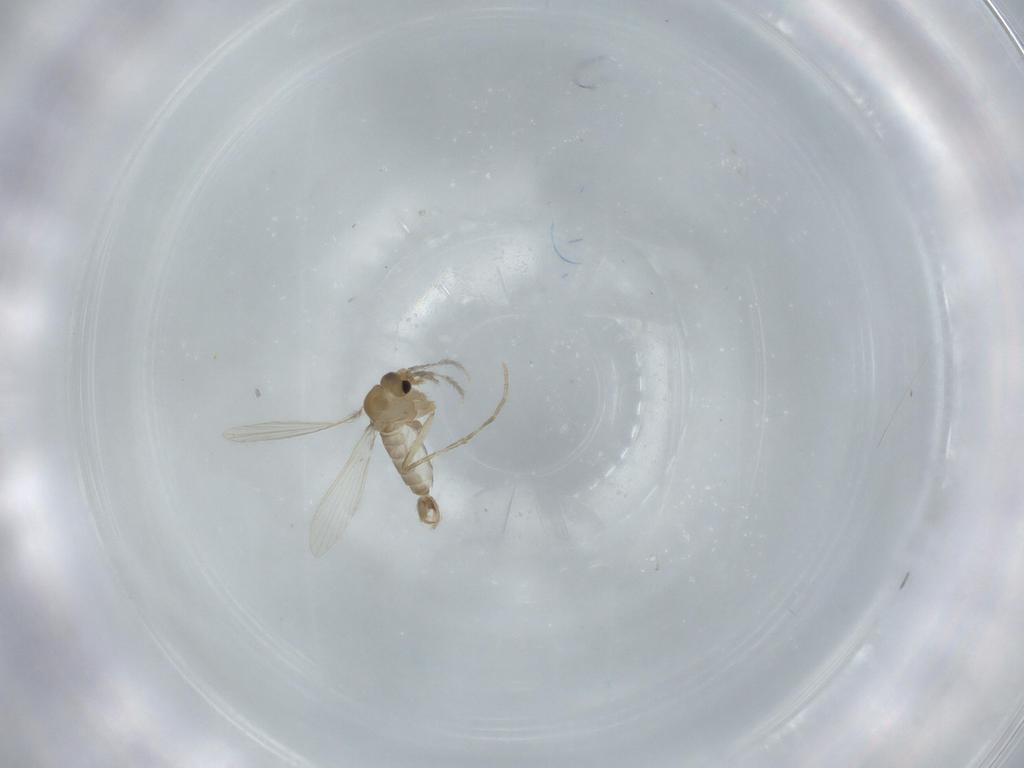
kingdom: Animalia
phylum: Arthropoda
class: Insecta
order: Diptera
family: Psychodidae
